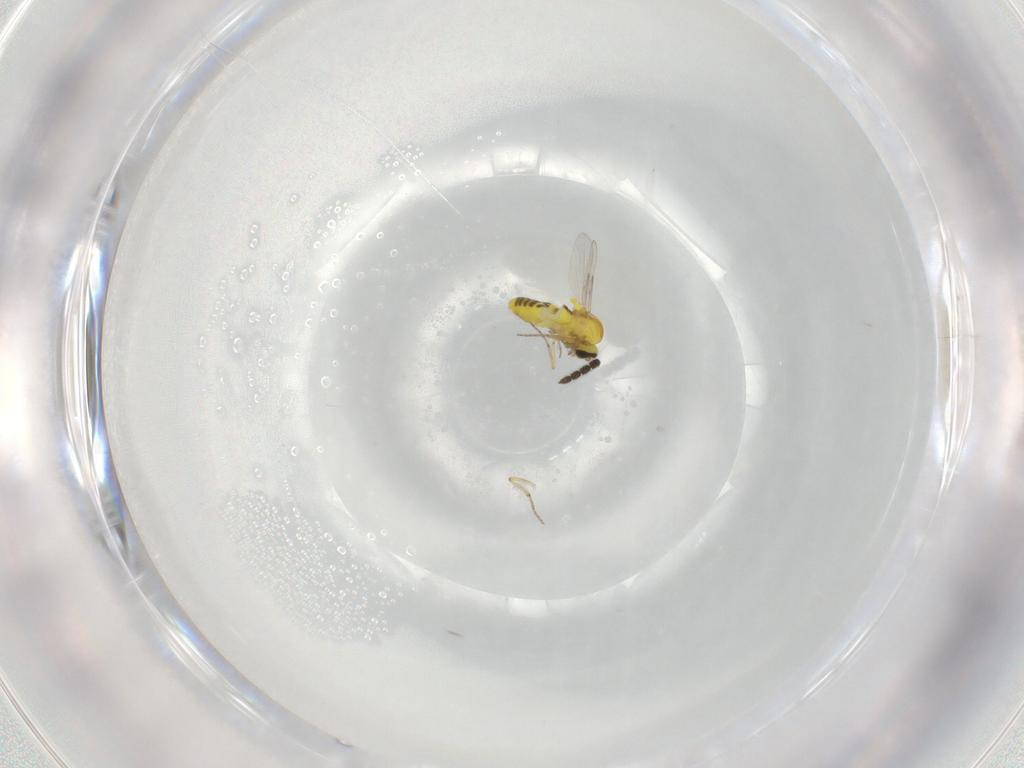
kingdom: Animalia
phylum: Arthropoda
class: Insecta
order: Diptera
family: Ceratopogonidae
